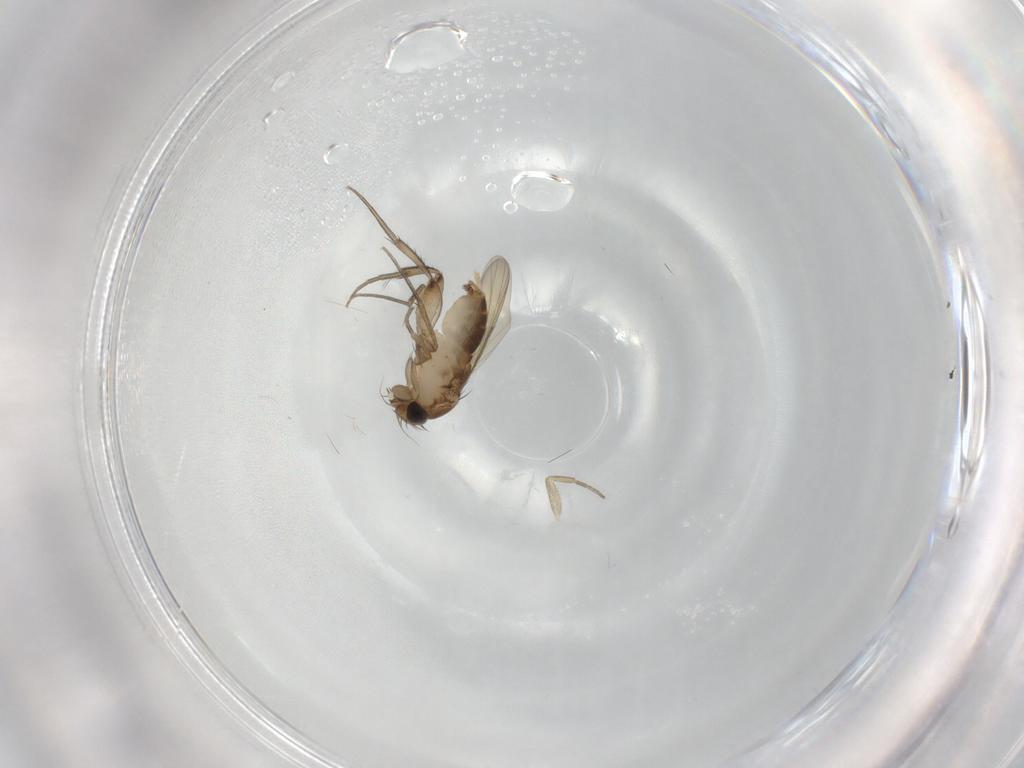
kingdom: Animalia
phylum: Arthropoda
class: Insecta
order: Diptera
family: Phoridae
